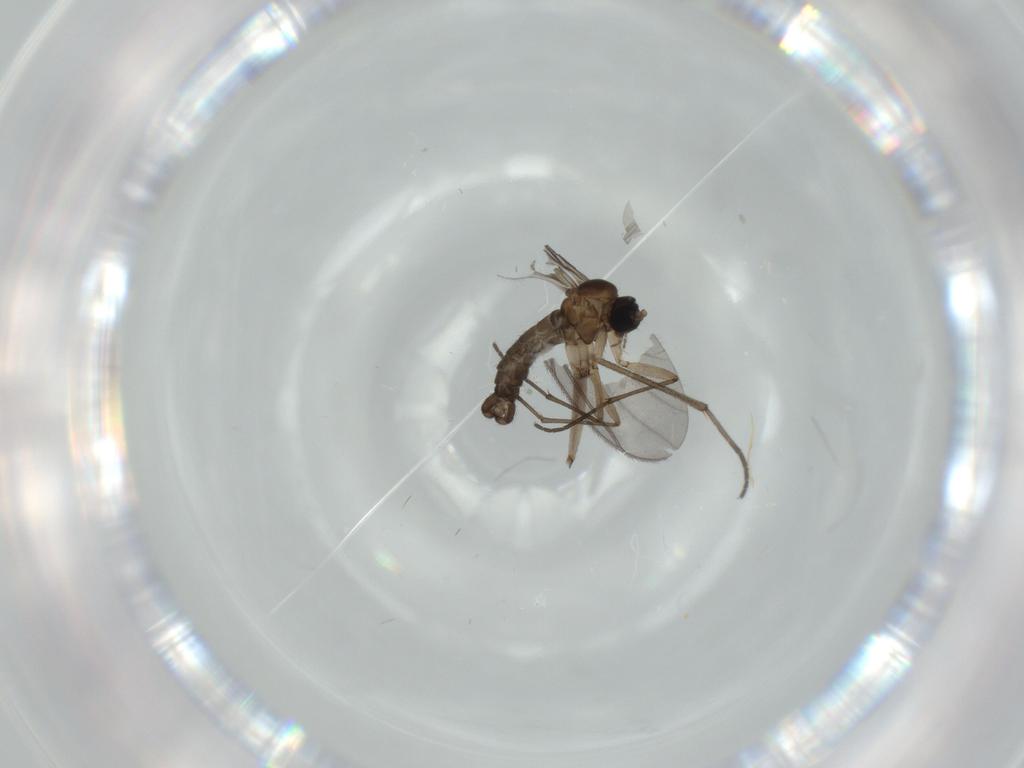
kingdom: Animalia
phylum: Arthropoda
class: Insecta
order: Diptera
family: Sciaridae
